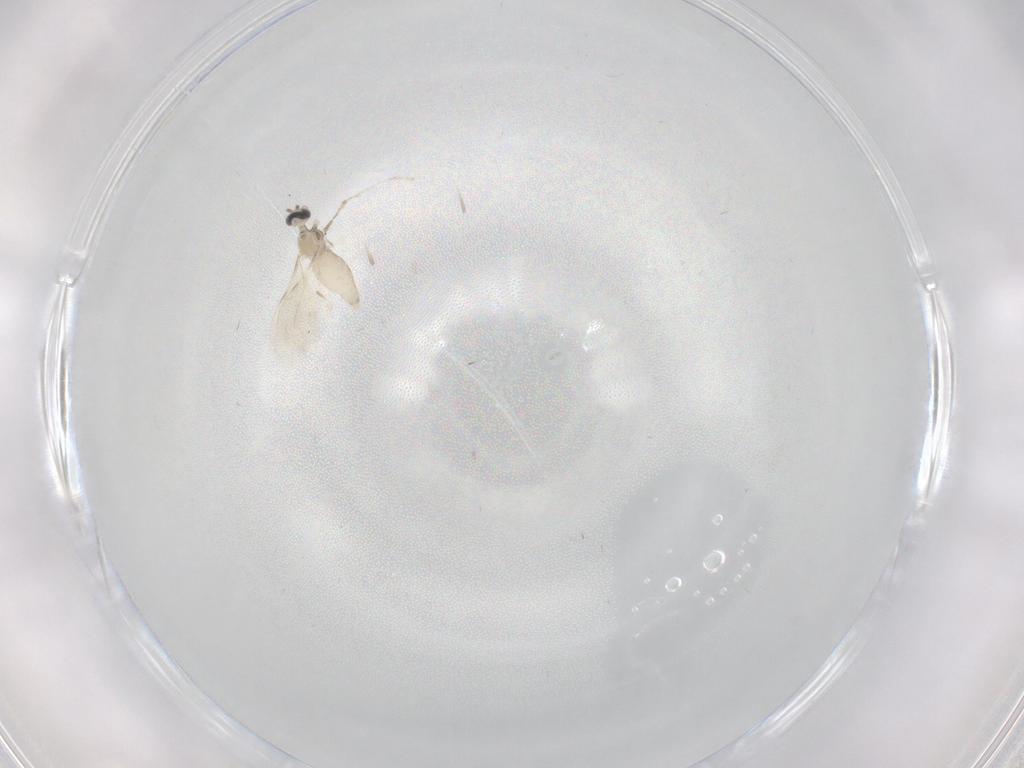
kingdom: Animalia
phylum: Arthropoda
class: Insecta
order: Diptera
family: Cecidomyiidae
